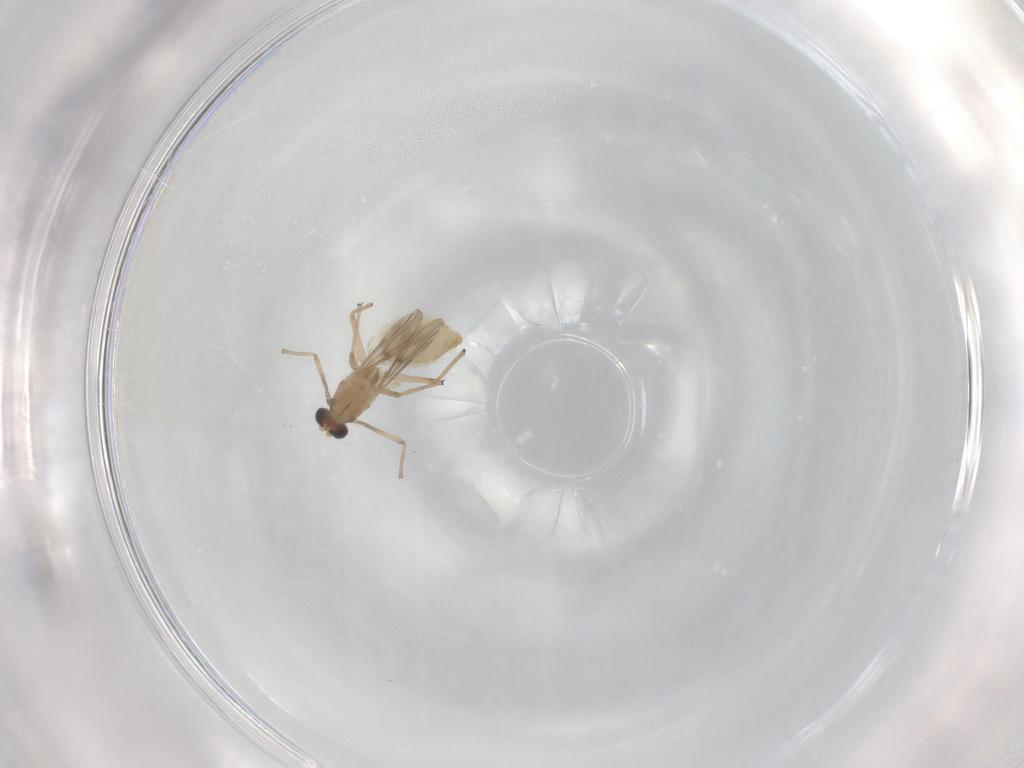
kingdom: Animalia
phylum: Arthropoda
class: Insecta
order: Diptera
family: Chironomidae
